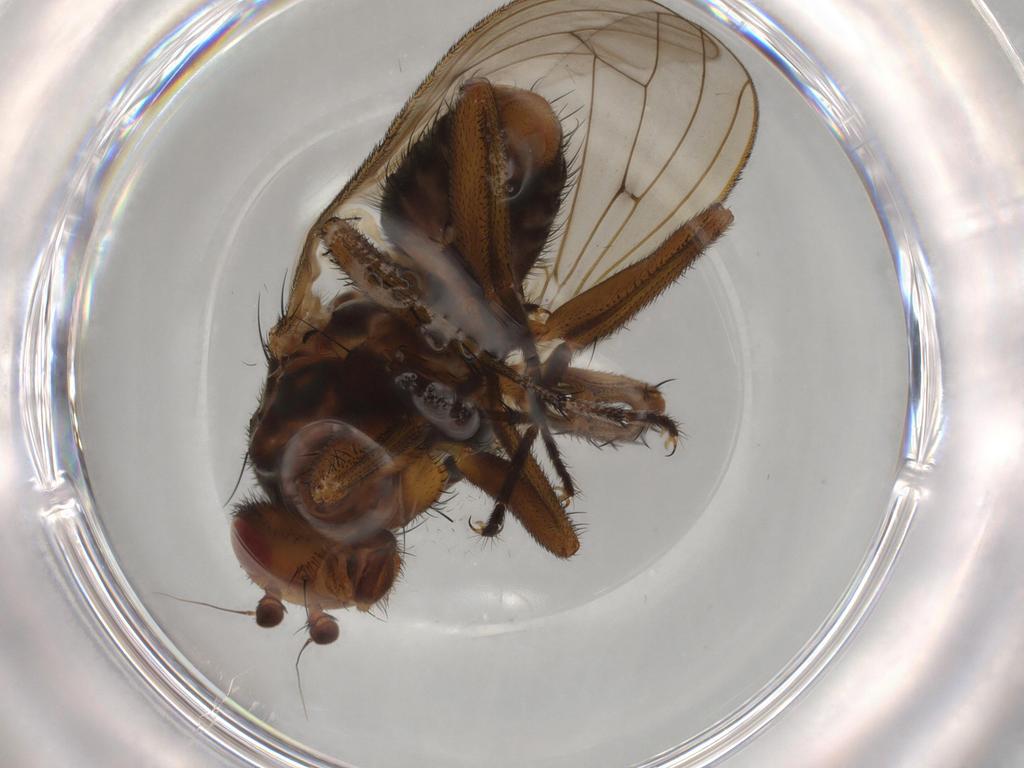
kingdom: Animalia
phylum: Arthropoda
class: Insecta
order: Diptera
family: Heleomyzidae
